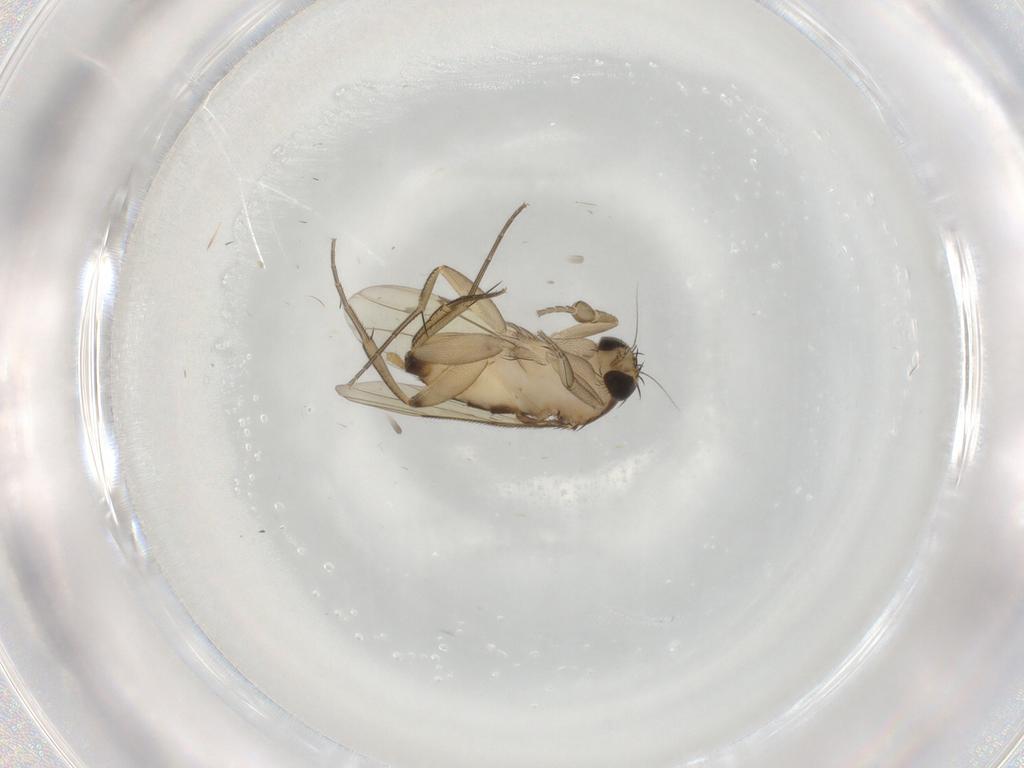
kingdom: Animalia
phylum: Arthropoda
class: Insecta
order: Diptera
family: Phoridae
